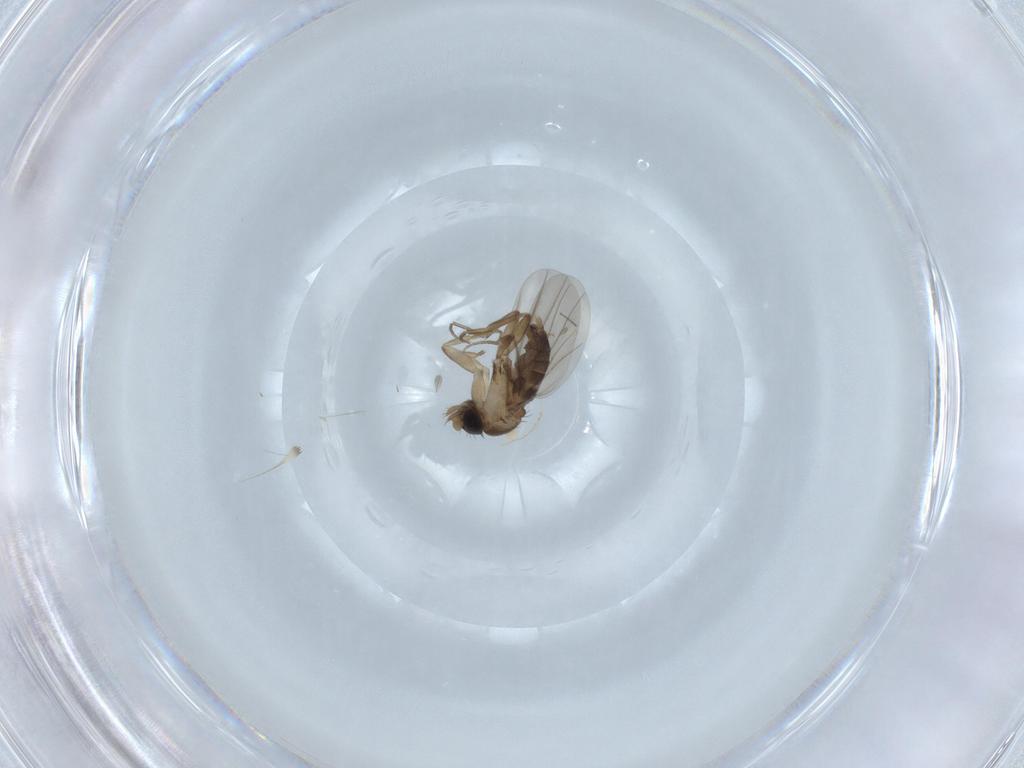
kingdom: Animalia
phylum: Arthropoda
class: Insecta
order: Diptera
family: Phoridae
